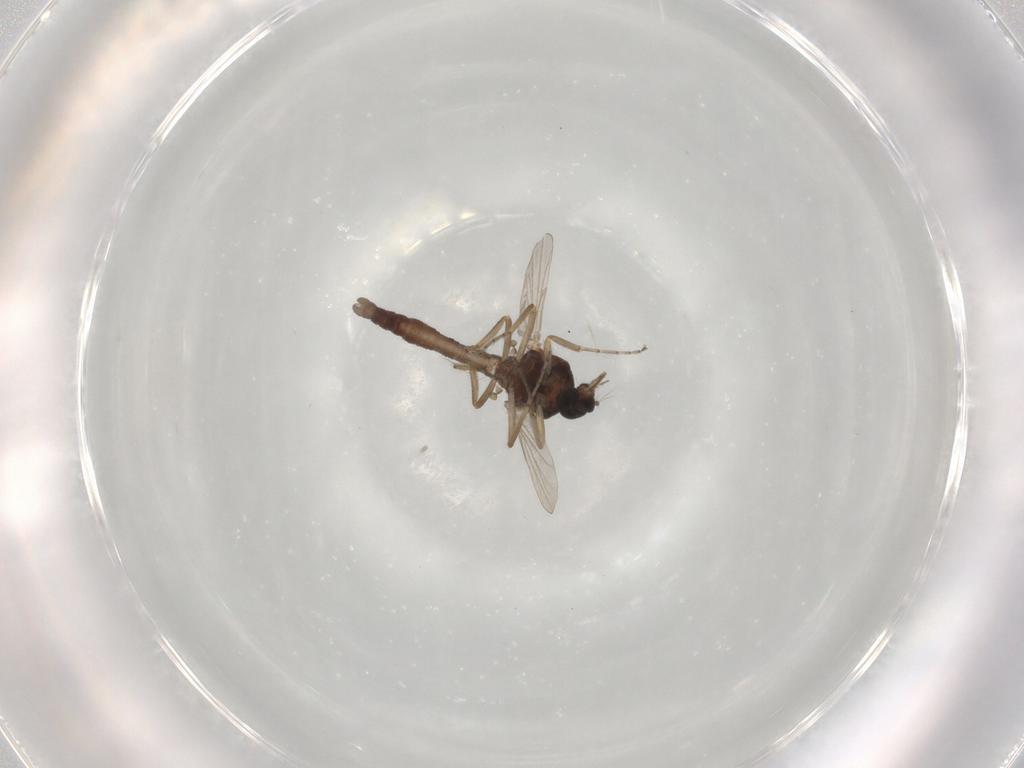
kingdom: Animalia
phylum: Arthropoda
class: Insecta
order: Diptera
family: Ceratopogonidae
